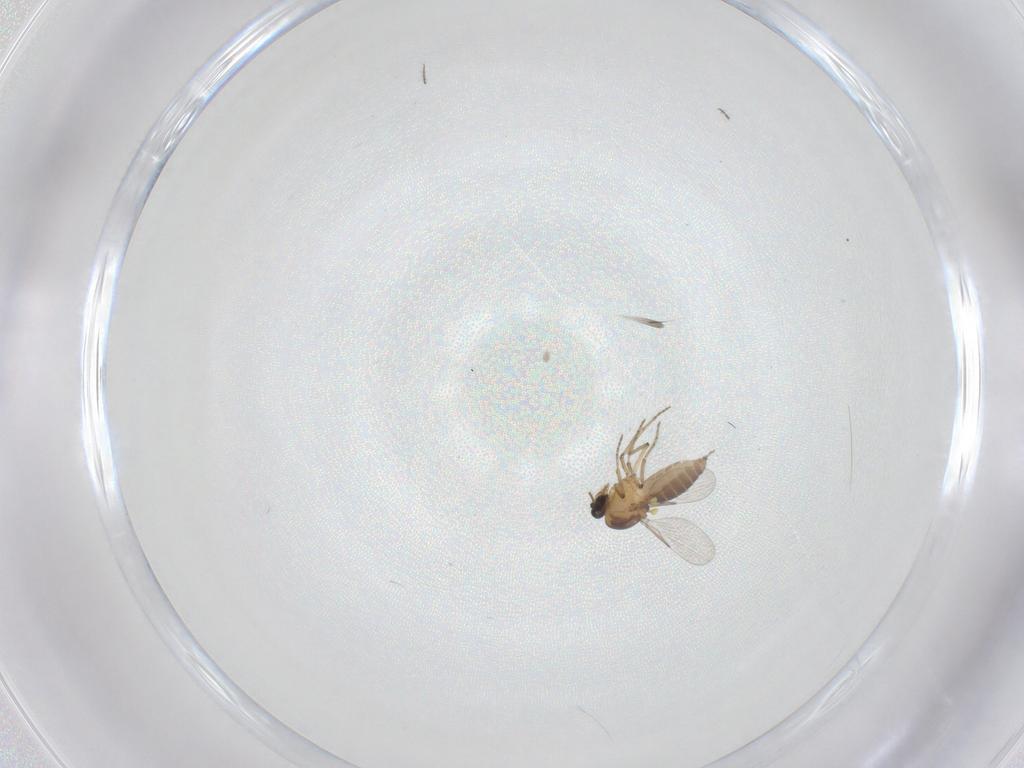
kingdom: Animalia
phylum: Arthropoda
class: Insecta
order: Diptera
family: Ceratopogonidae
